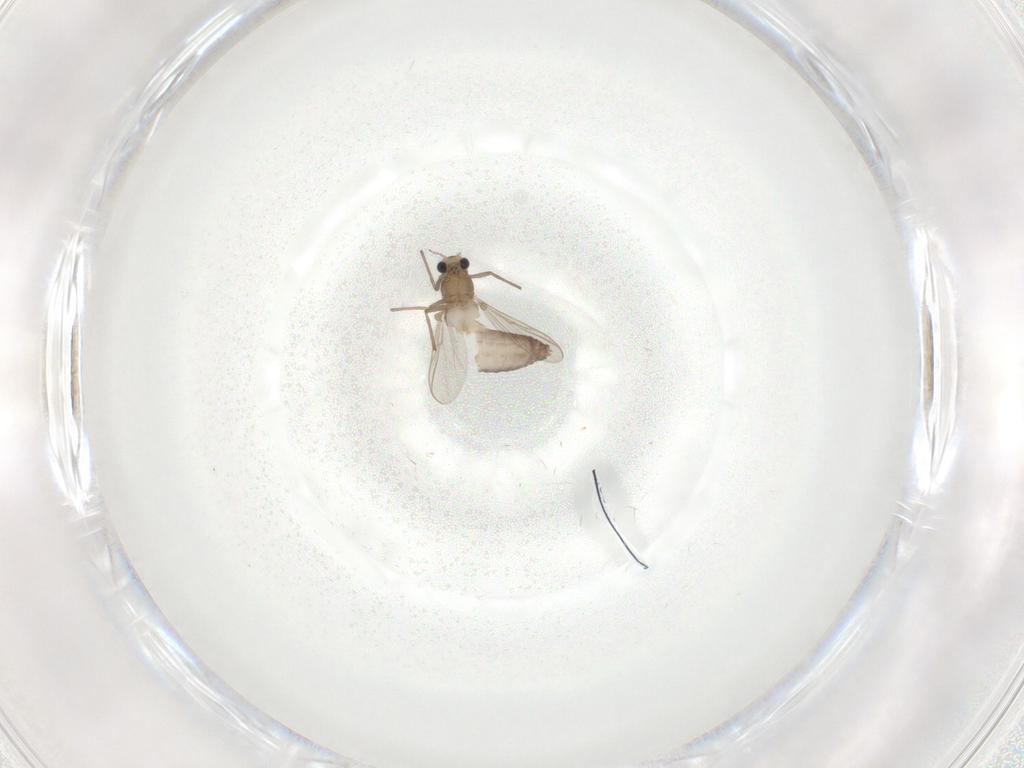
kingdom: Animalia
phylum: Arthropoda
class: Insecta
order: Diptera
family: Chironomidae
